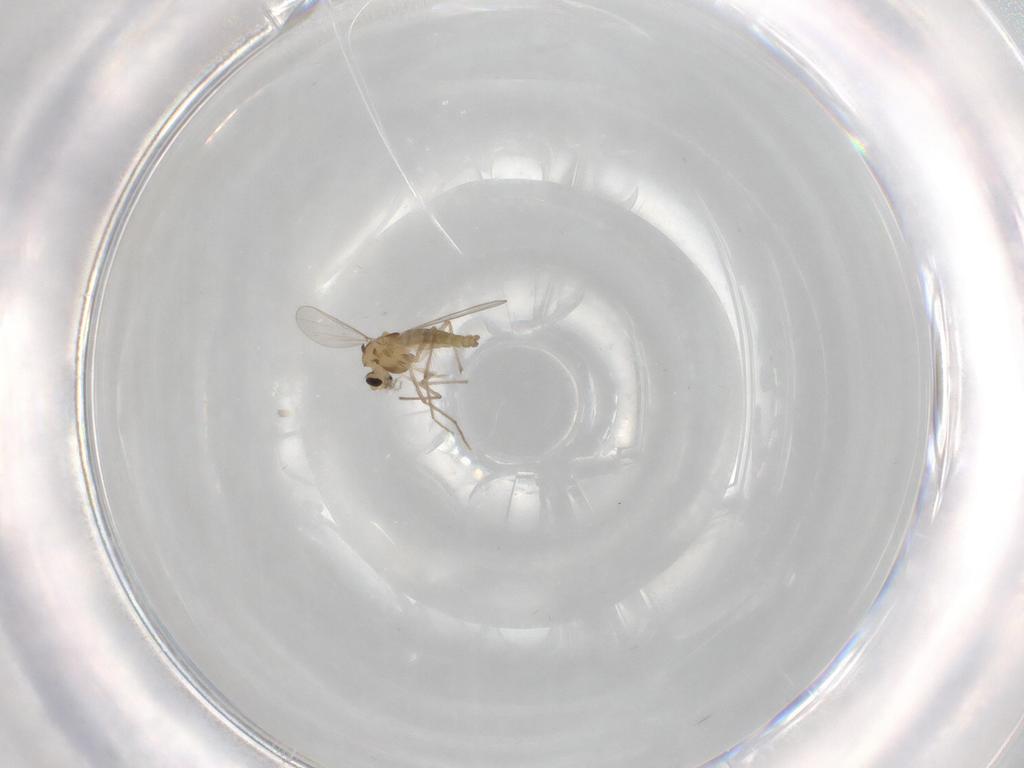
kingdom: Animalia
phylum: Arthropoda
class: Insecta
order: Diptera
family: Chironomidae
